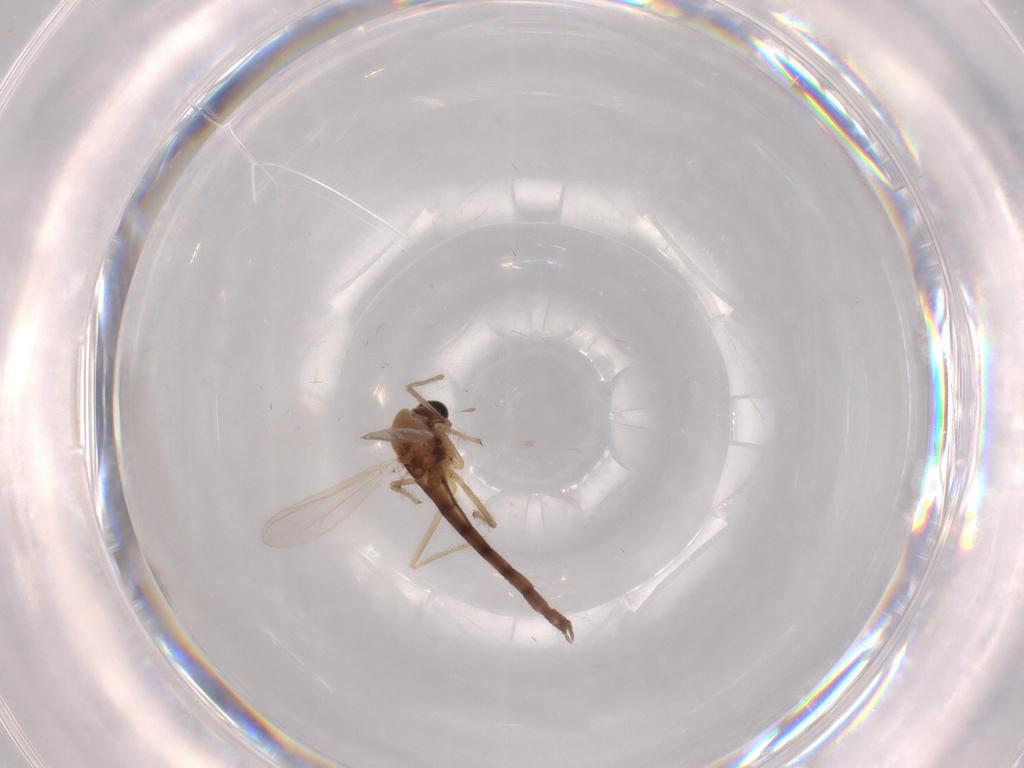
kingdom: Animalia
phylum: Arthropoda
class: Insecta
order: Diptera
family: Chironomidae
